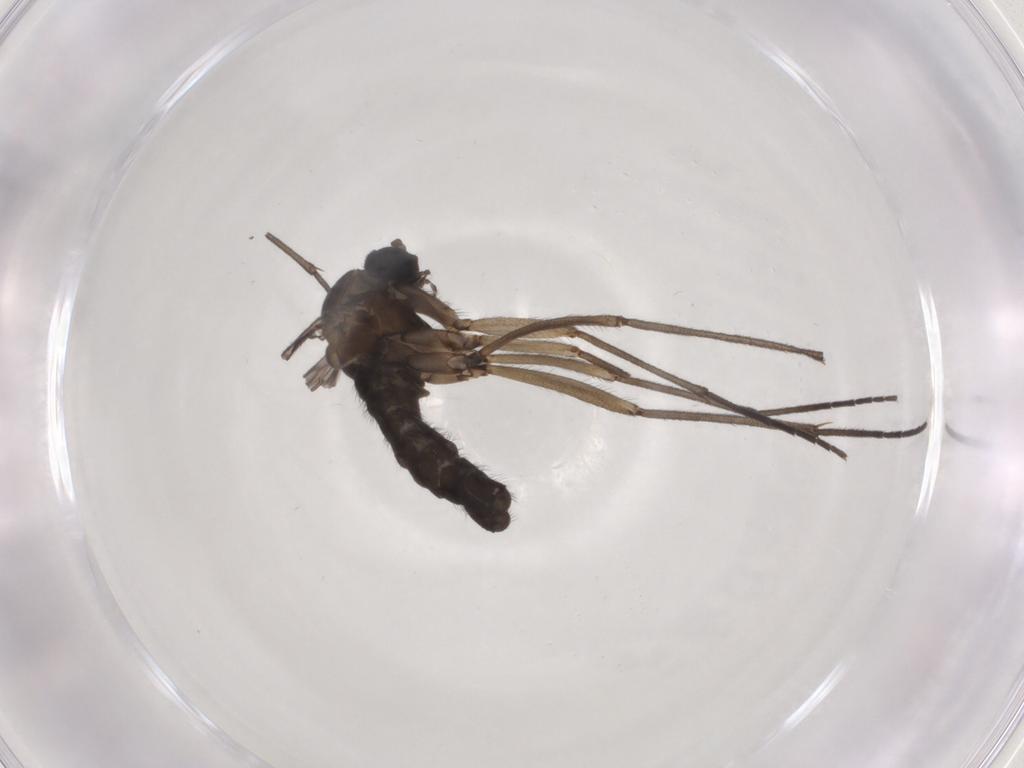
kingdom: Animalia
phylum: Arthropoda
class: Insecta
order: Diptera
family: Sciaridae
